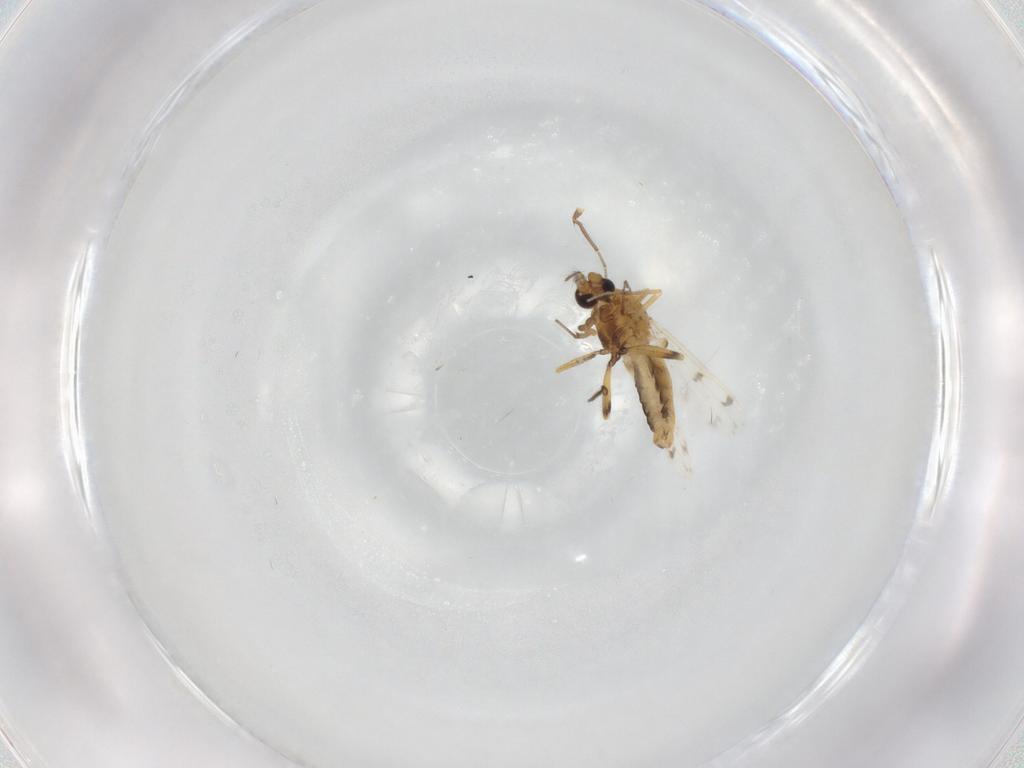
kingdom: Animalia
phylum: Arthropoda
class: Insecta
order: Diptera
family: Ceratopogonidae
